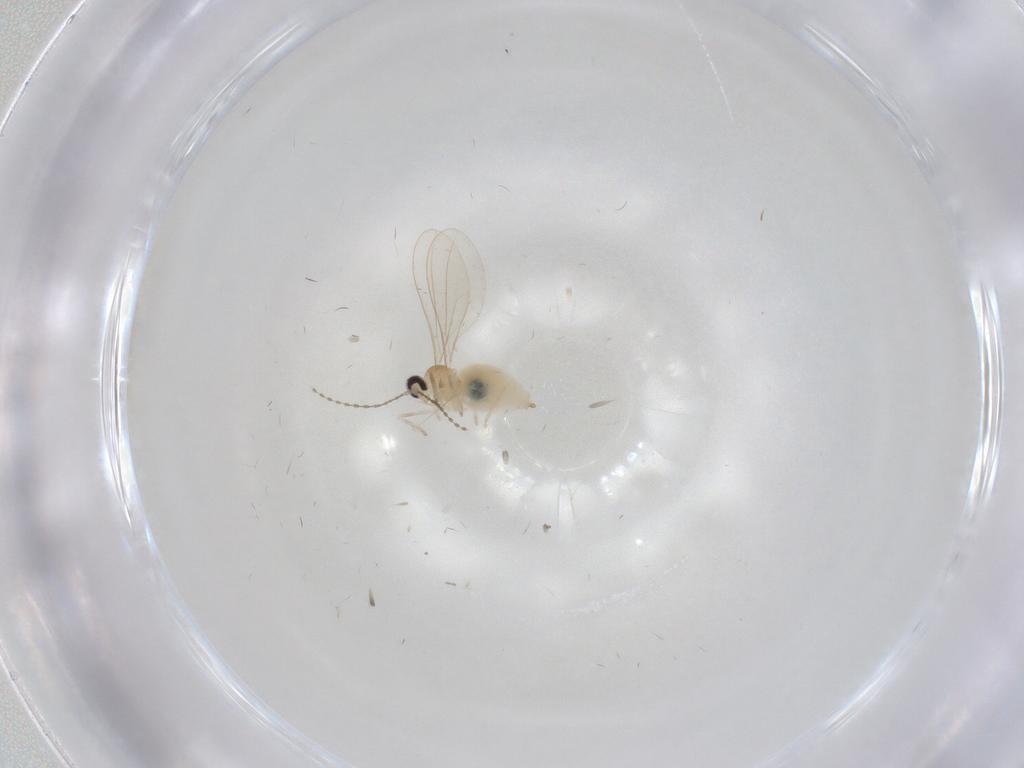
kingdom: Animalia
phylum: Arthropoda
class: Insecta
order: Diptera
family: Cecidomyiidae
